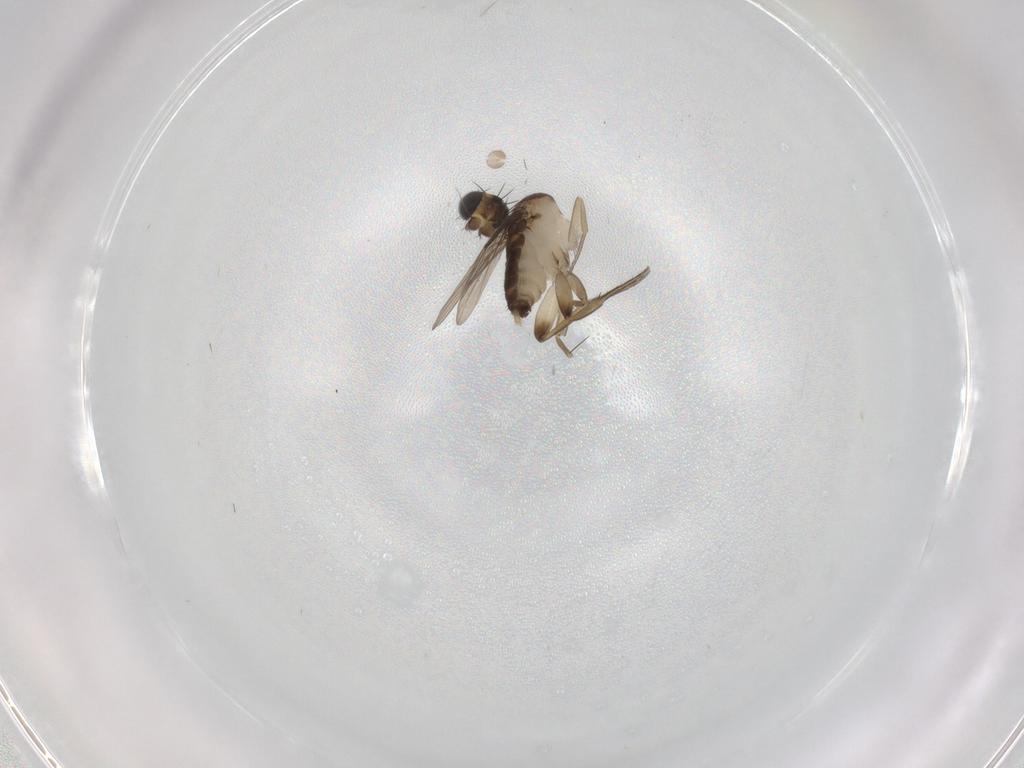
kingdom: Animalia
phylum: Arthropoda
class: Insecta
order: Diptera
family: Phoridae
